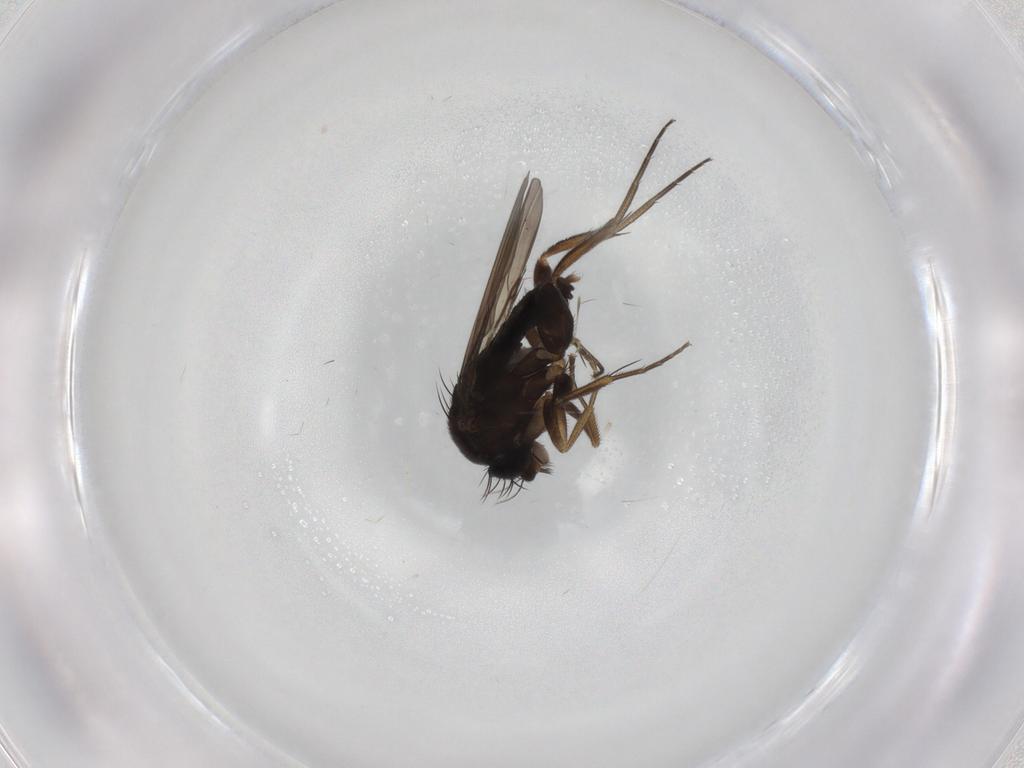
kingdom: Animalia
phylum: Arthropoda
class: Insecta
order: Diptera
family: Phoridae
